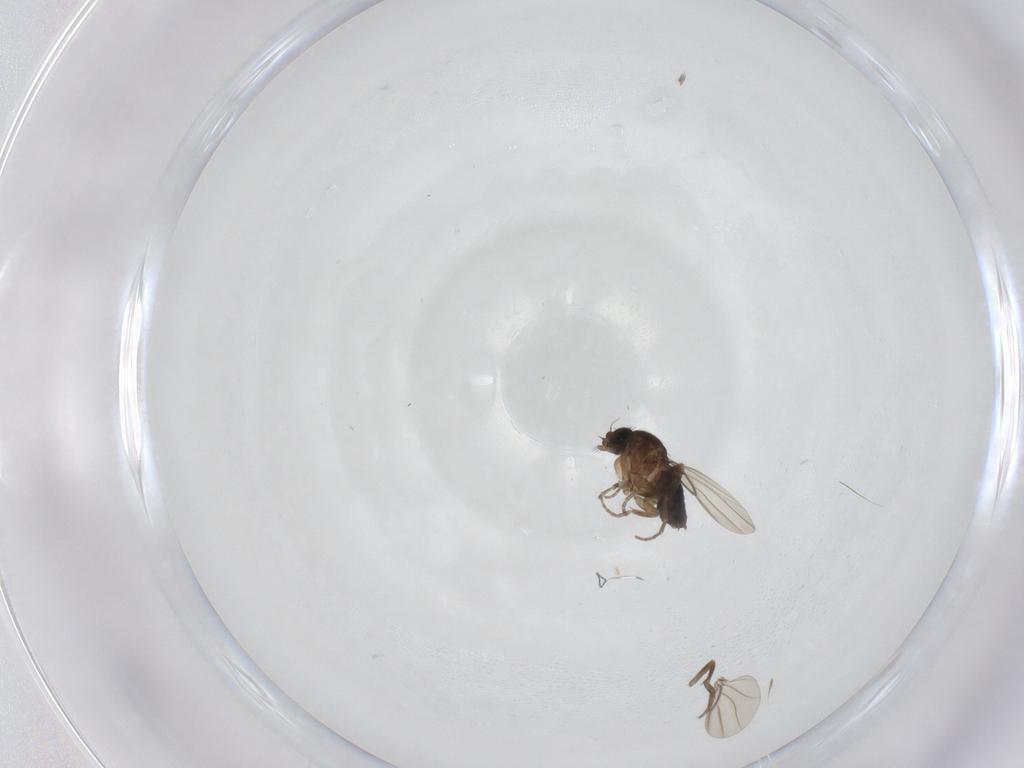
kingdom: Animalia
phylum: Arthropoda
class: Insecta
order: Diptera
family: Phoridae
